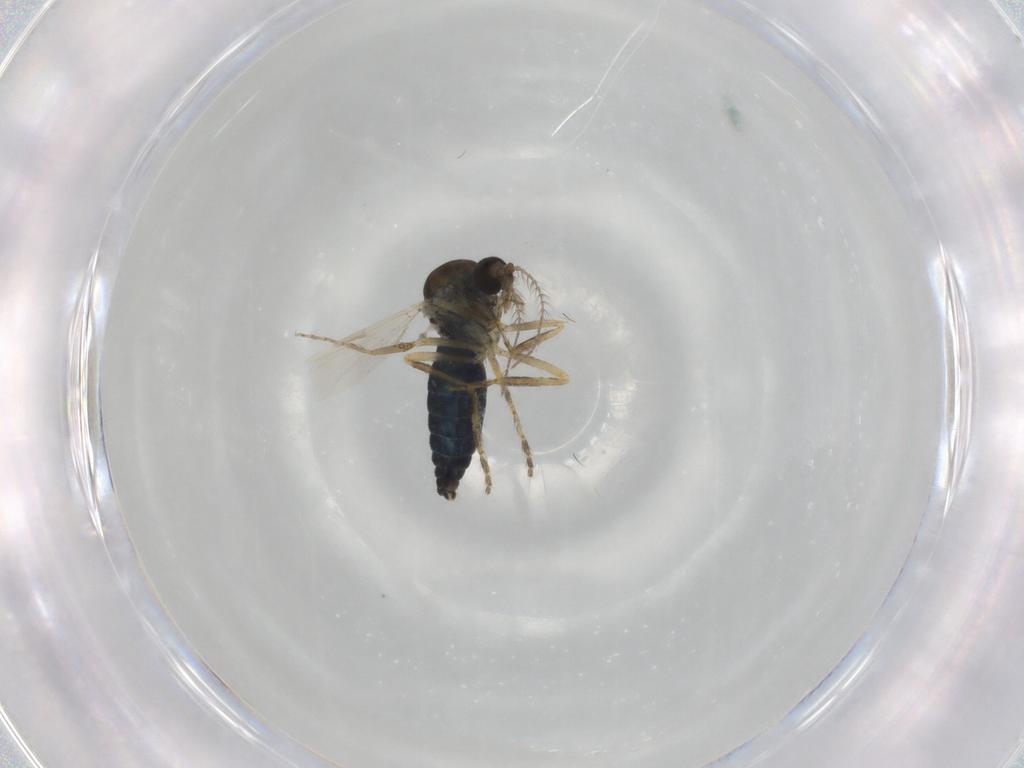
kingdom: Animalia
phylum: Arthropoda
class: Insecta
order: Diptera
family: Ceratopogonidae
